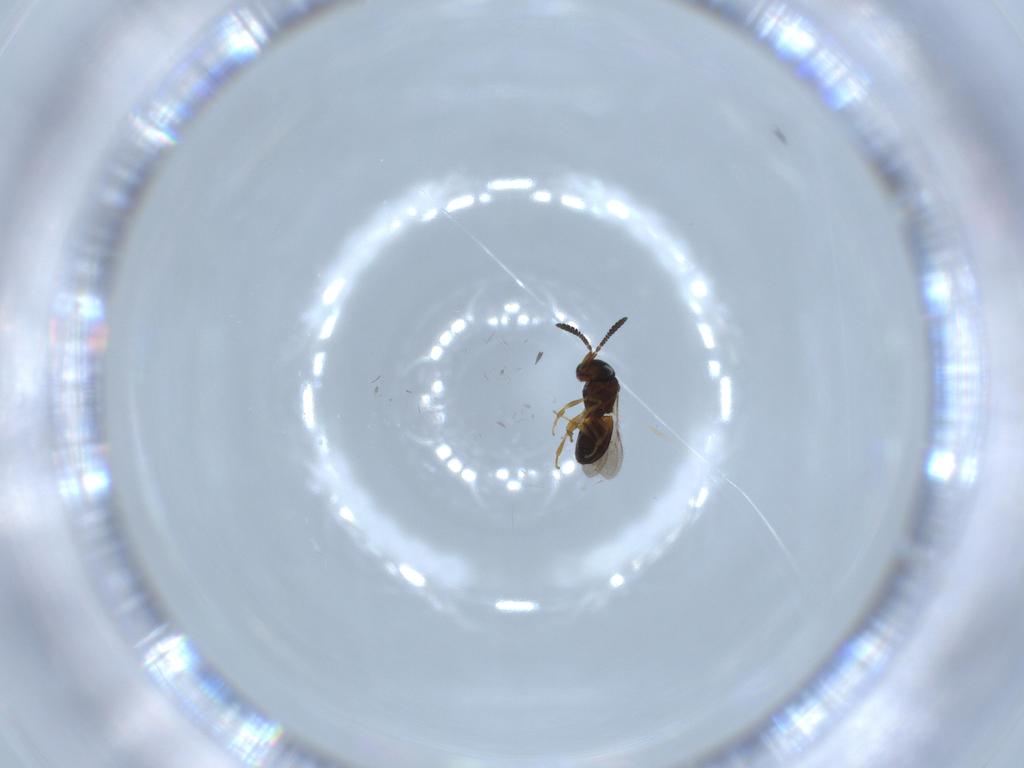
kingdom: Animalia
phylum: Arthropoda
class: Insecta
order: Hymenoptera
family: Scelionidae
